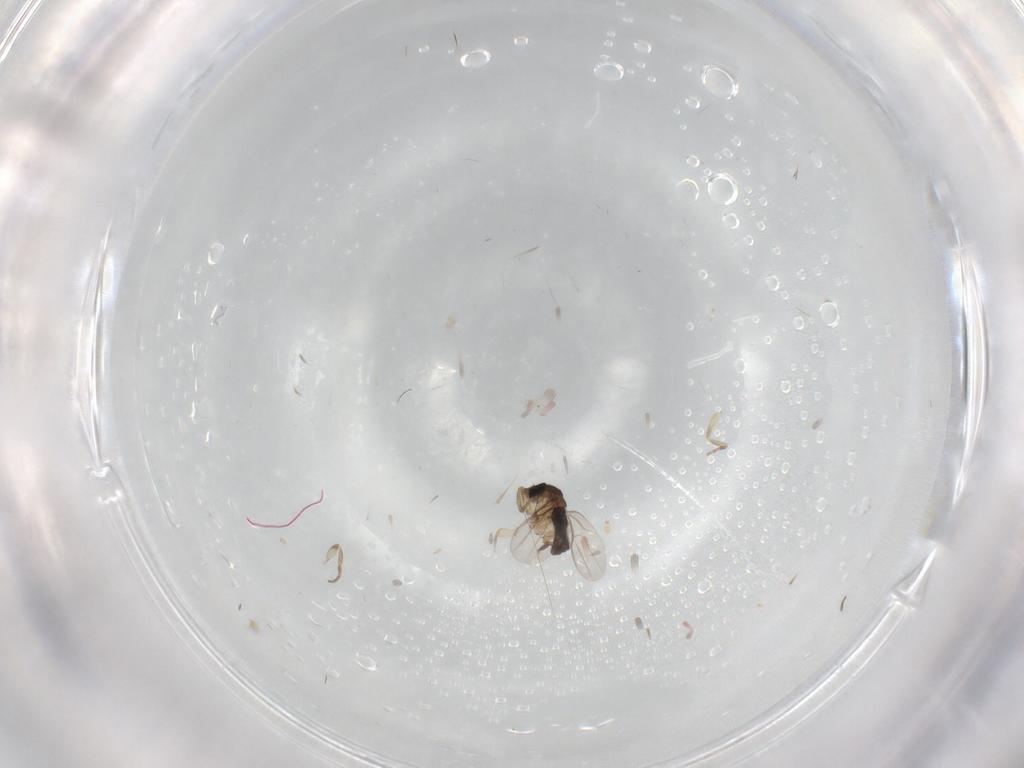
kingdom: Animalia
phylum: Arthropoda
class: Insecta
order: Diptera
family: Phoridae
